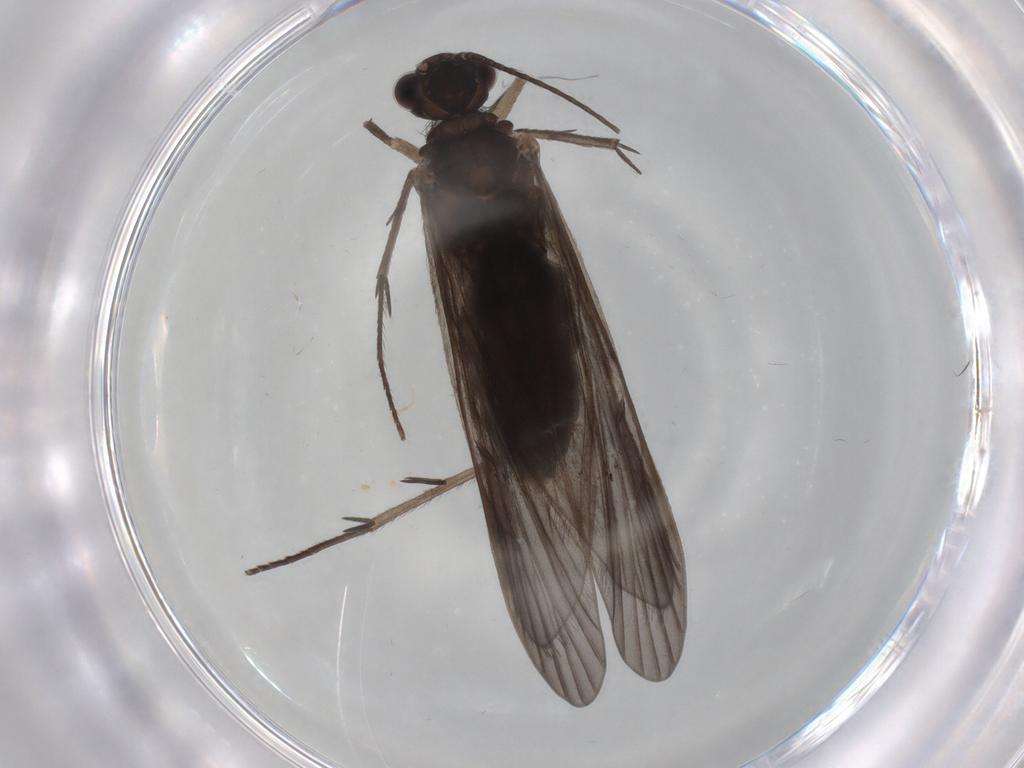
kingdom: Animalia
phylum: Arthropoda
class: Insecta
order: Trichoptera
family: Philopotamidae
